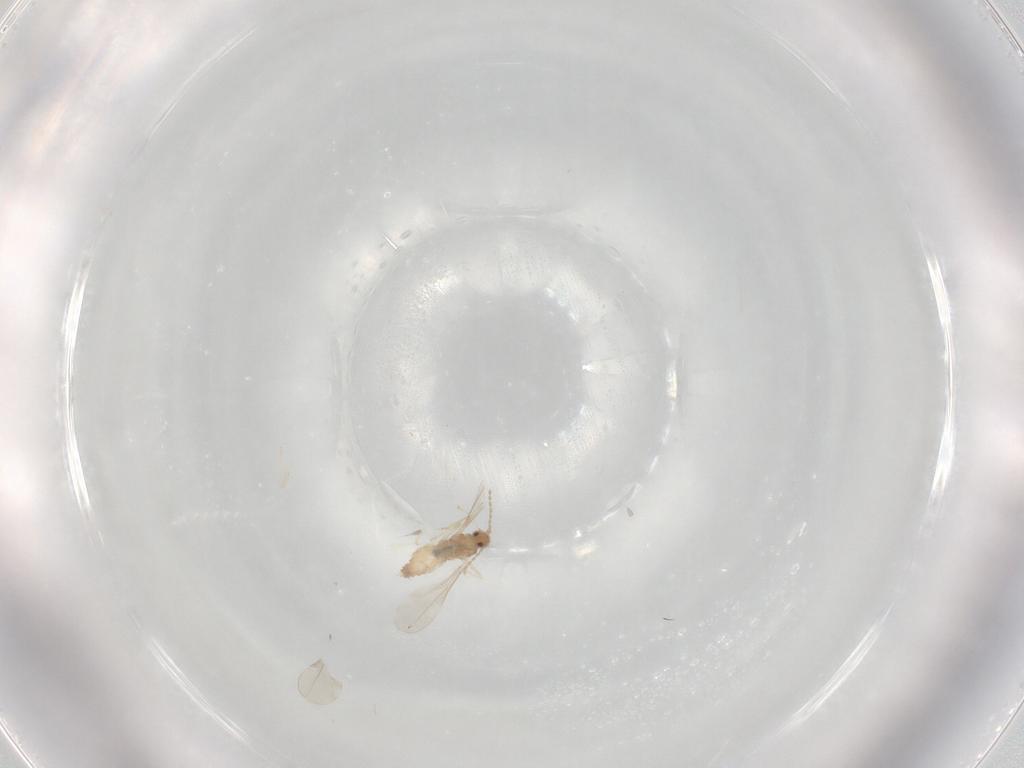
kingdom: Animalia
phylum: Arthropoda
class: Insecta
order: Diptera
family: Cecidomyiidae
